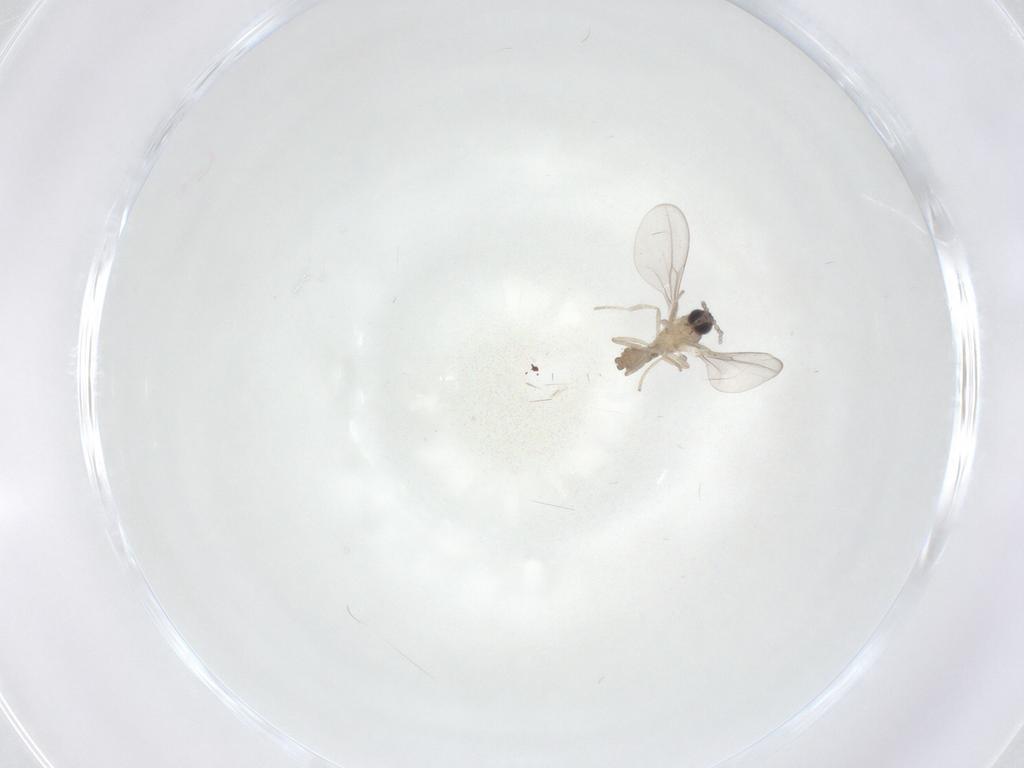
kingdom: Animalia
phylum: Arthropoda
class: Insecta
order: Diptera
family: Cecidomyiidae
